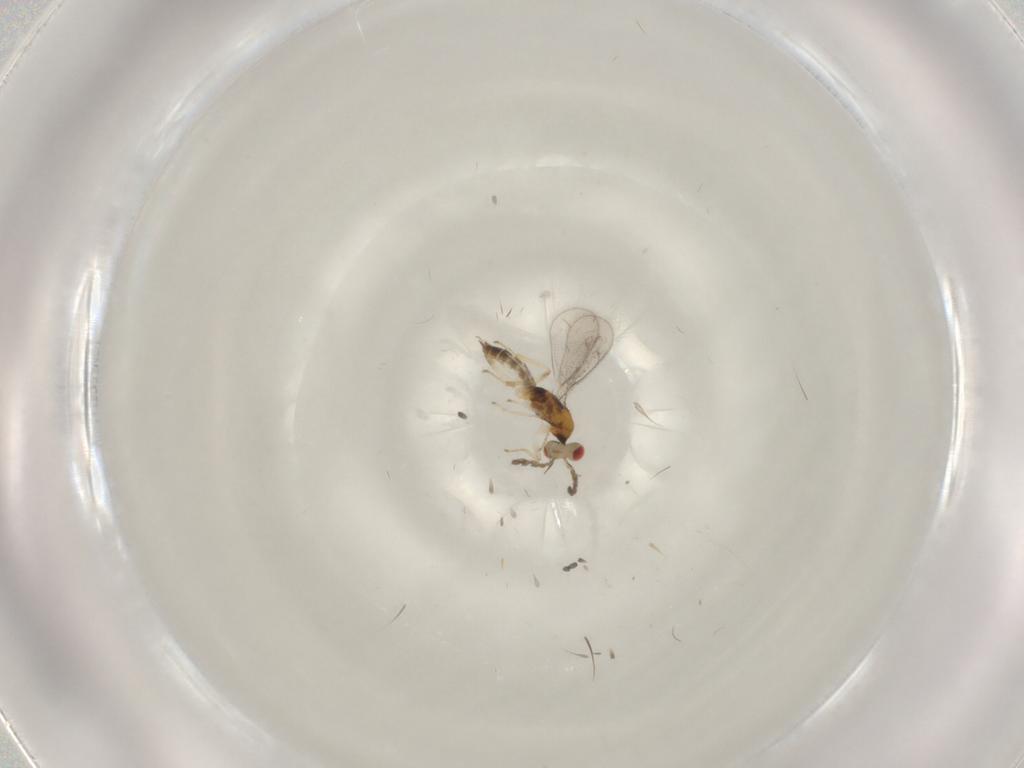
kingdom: Animalia
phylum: Arthropoda
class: Insecta
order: Hymenoptera
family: Eulophidae
